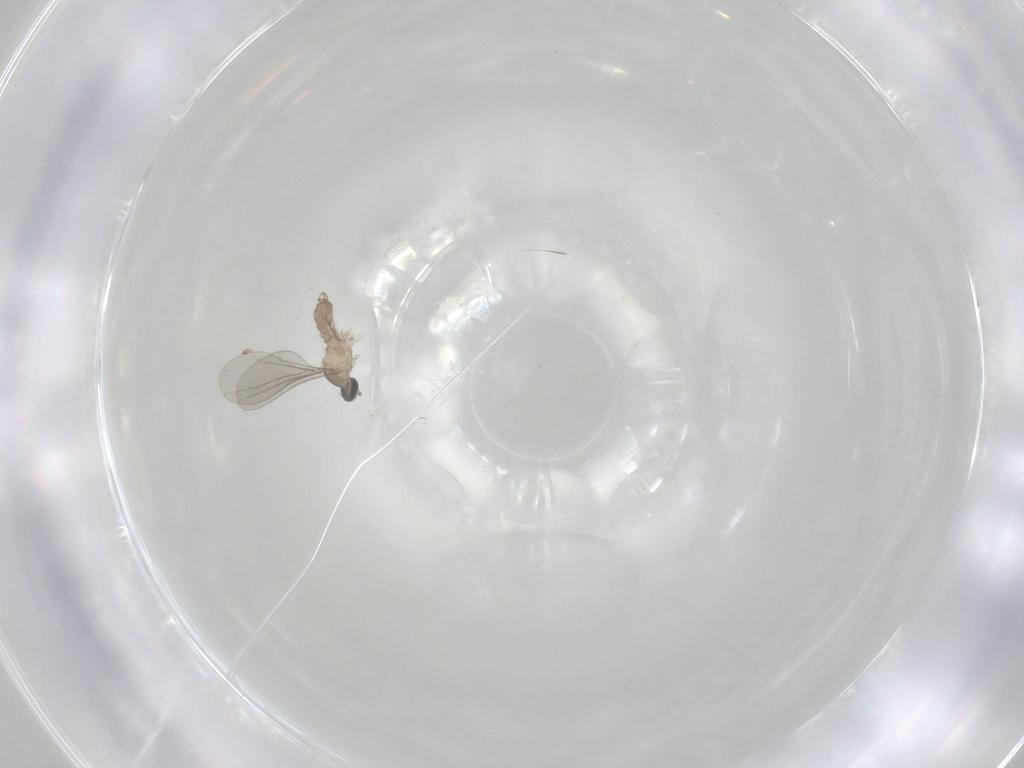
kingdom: Animalia
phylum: Arthropoda
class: Insecta
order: Diptera
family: Cecidomyiidae
